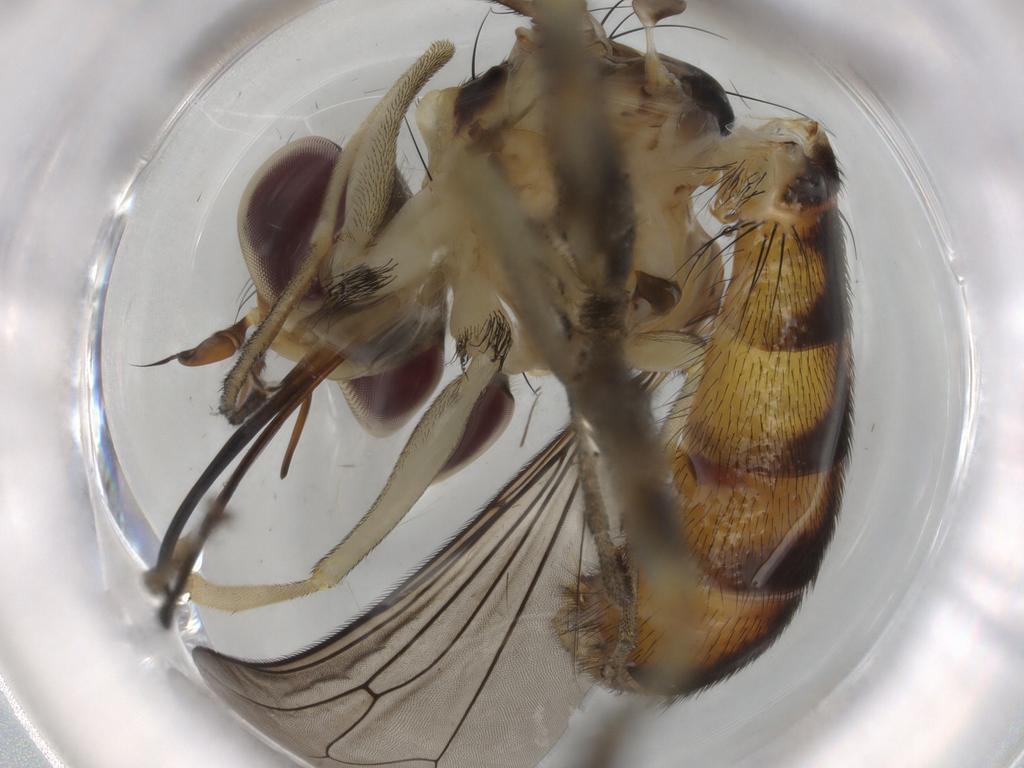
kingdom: Animalia
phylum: Arthropoda
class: Insecta
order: Diptera
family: Conopidae
